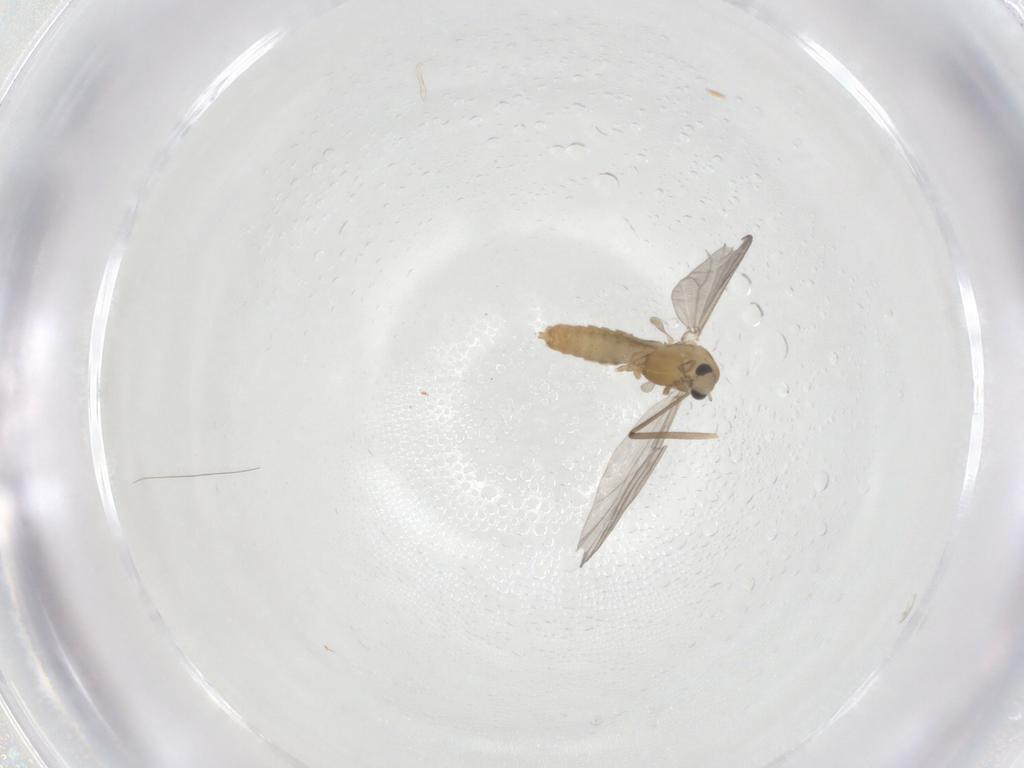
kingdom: Animalia
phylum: Arthropoda
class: Insecta
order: Diptera
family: Chironomidae
